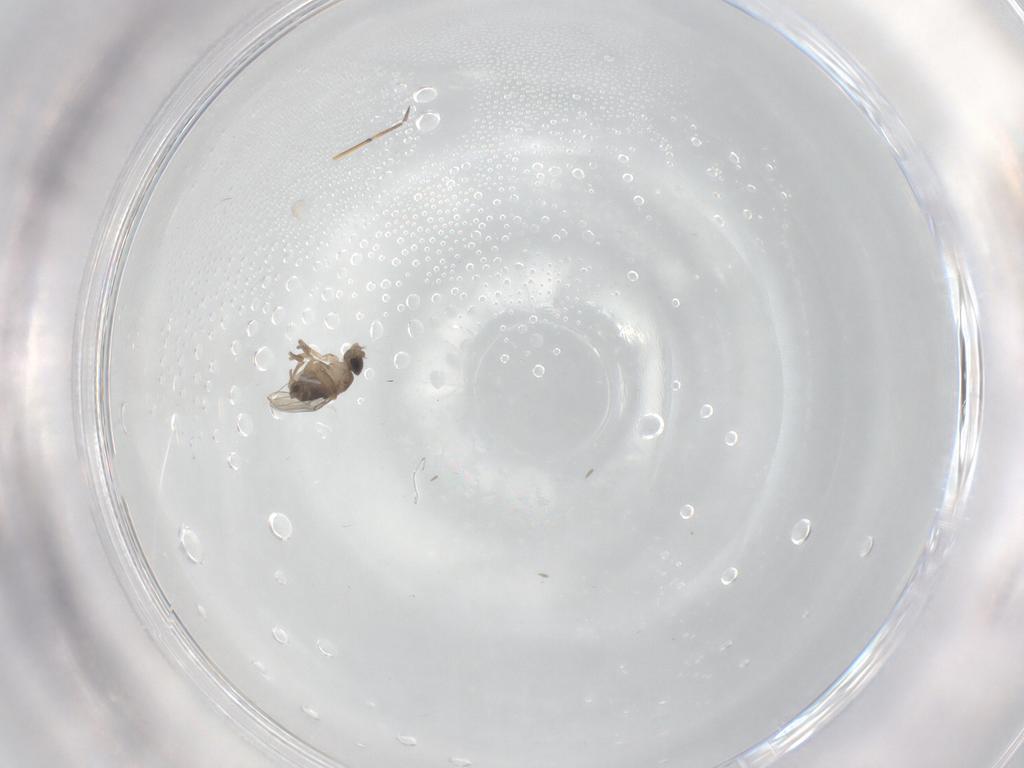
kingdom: Animalia
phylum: Arthropoda
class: Insecta
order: Diptera
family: Phoridae
